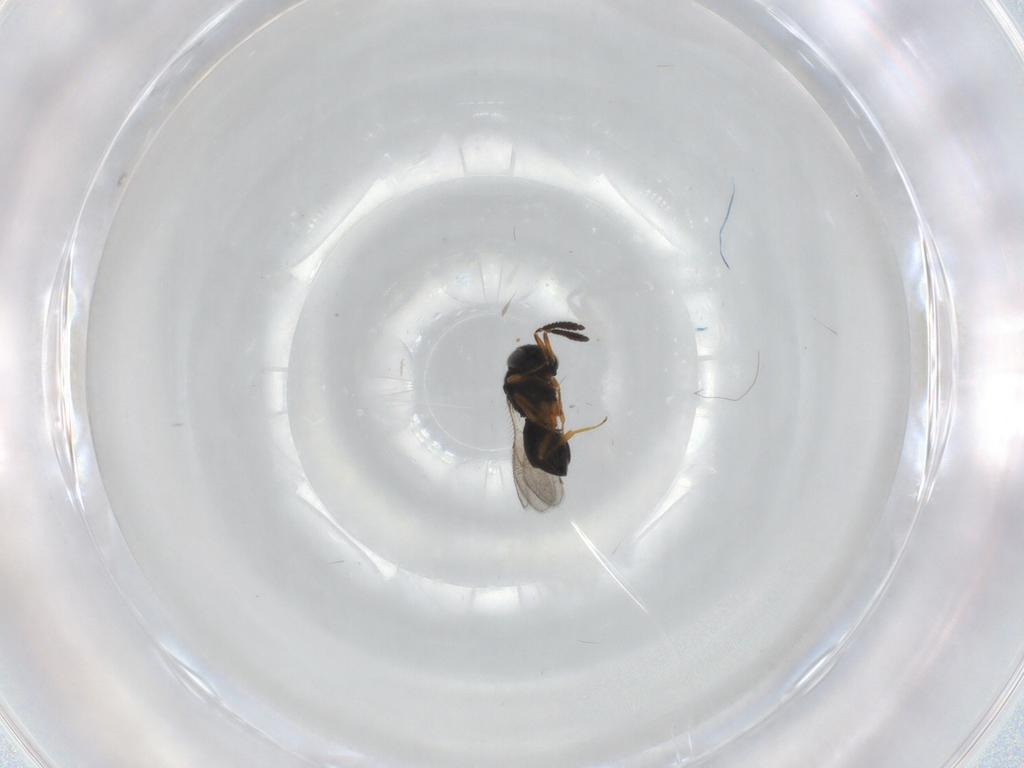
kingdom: Animalia
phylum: Arthropoda
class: Insecta
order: Hymenoptera
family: Scelionidae
